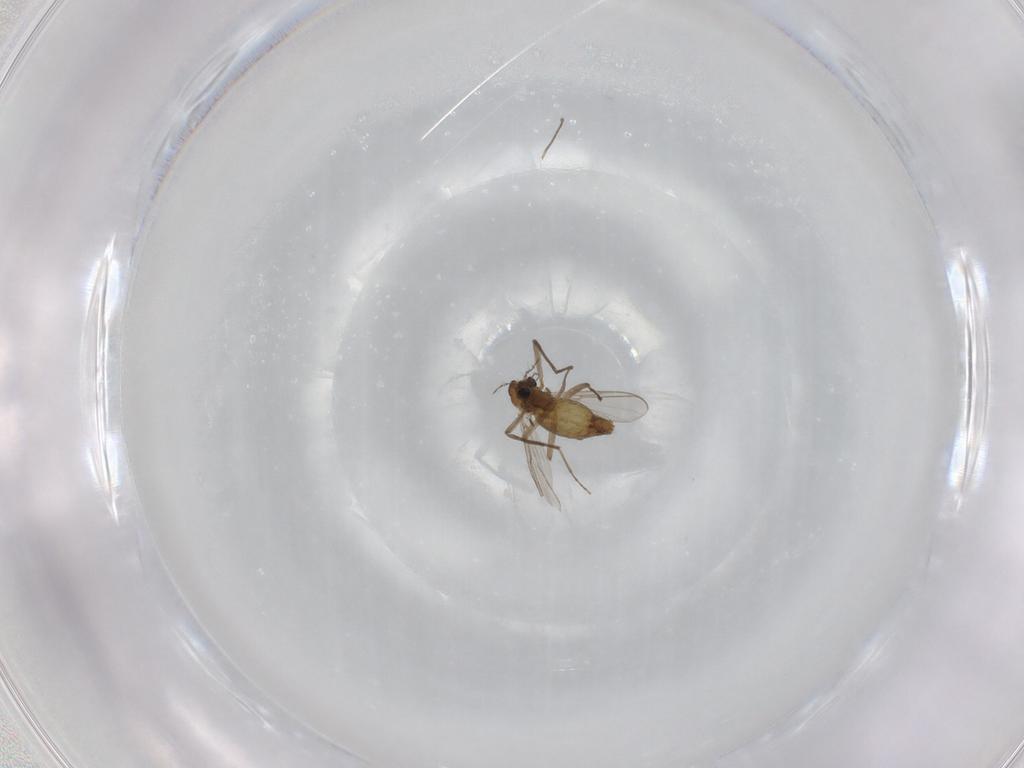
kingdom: Animalia
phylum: Arthropoda
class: Insecta
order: Diptera
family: Chironomidae
